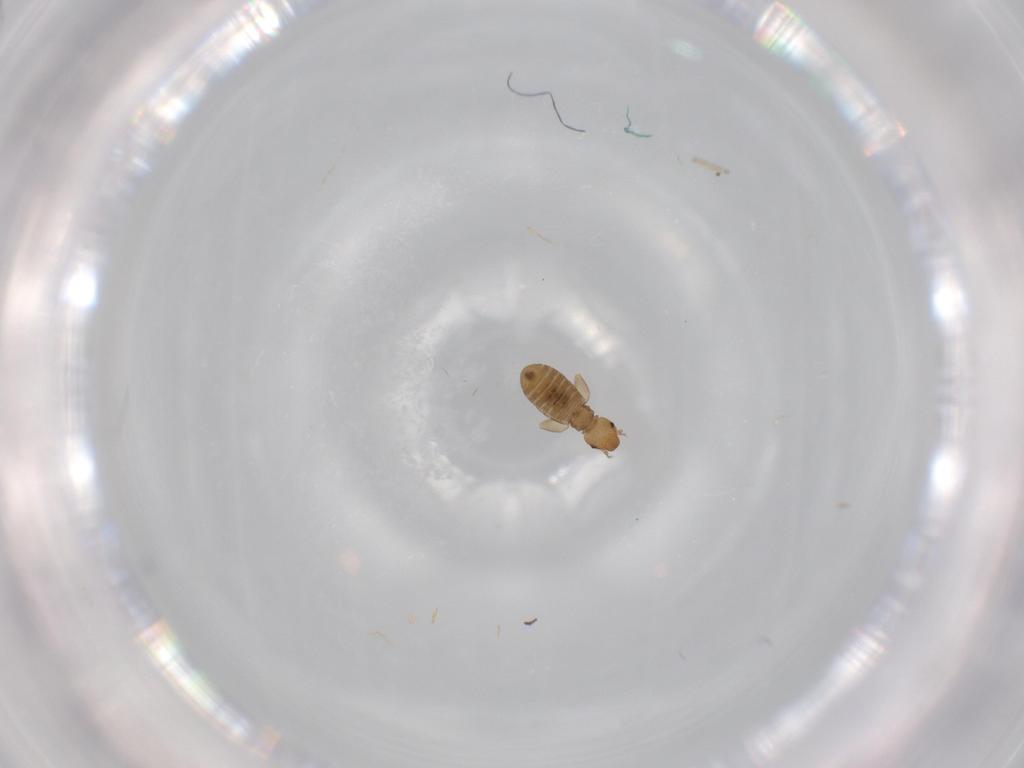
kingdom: Animalia
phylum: Arthropoda
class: Insecta
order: Psocodea
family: Liposcelididae
